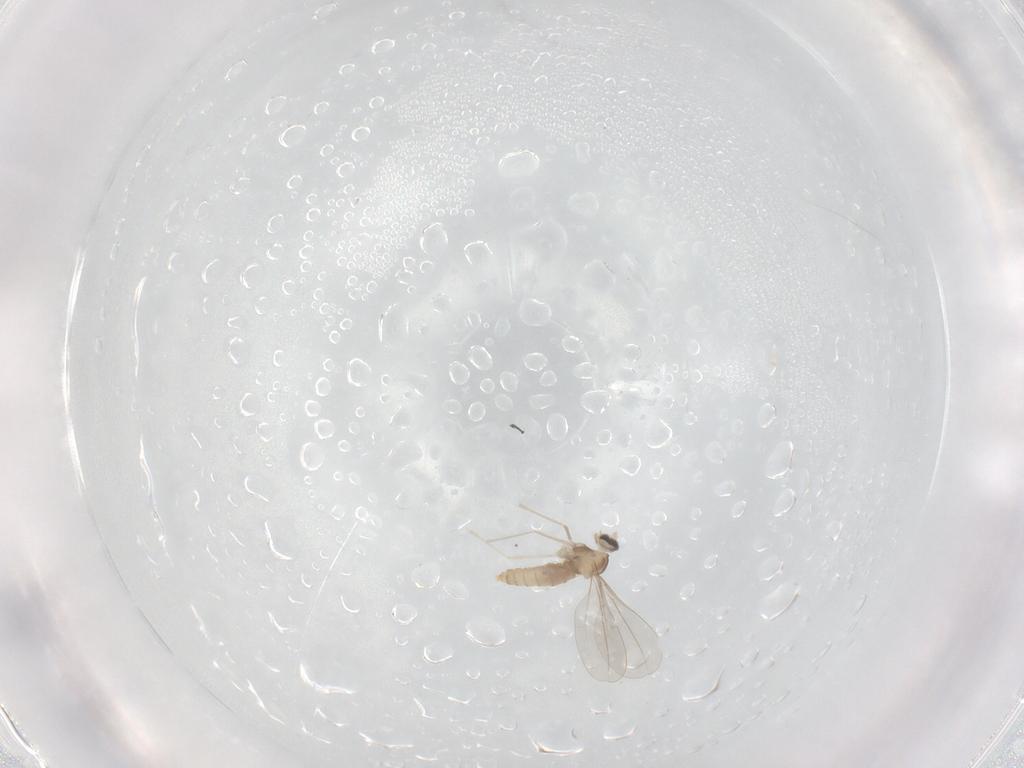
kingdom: Animalia
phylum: Arthropoda
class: Insecta
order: Diptera
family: Cecidomyiidae
